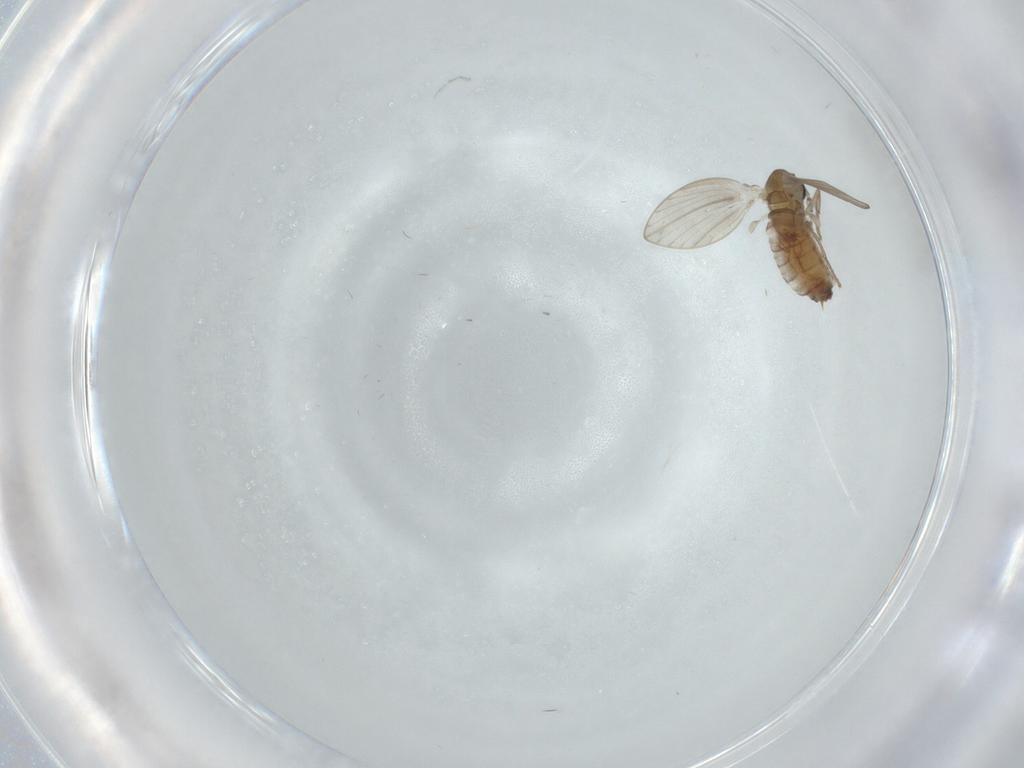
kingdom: Animalia
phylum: Arthropoda
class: Insecta
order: Diptera
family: Psychodidae
